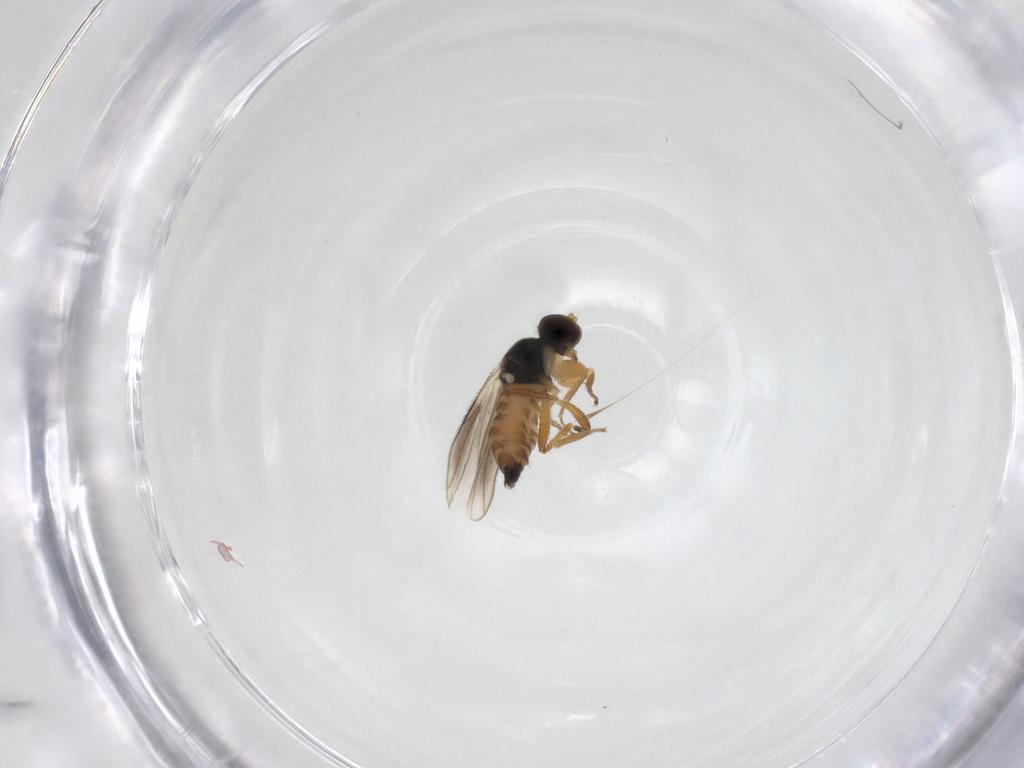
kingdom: Animalia
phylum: Arthropoda
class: Insecta
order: Diptera
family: Hybotidae
